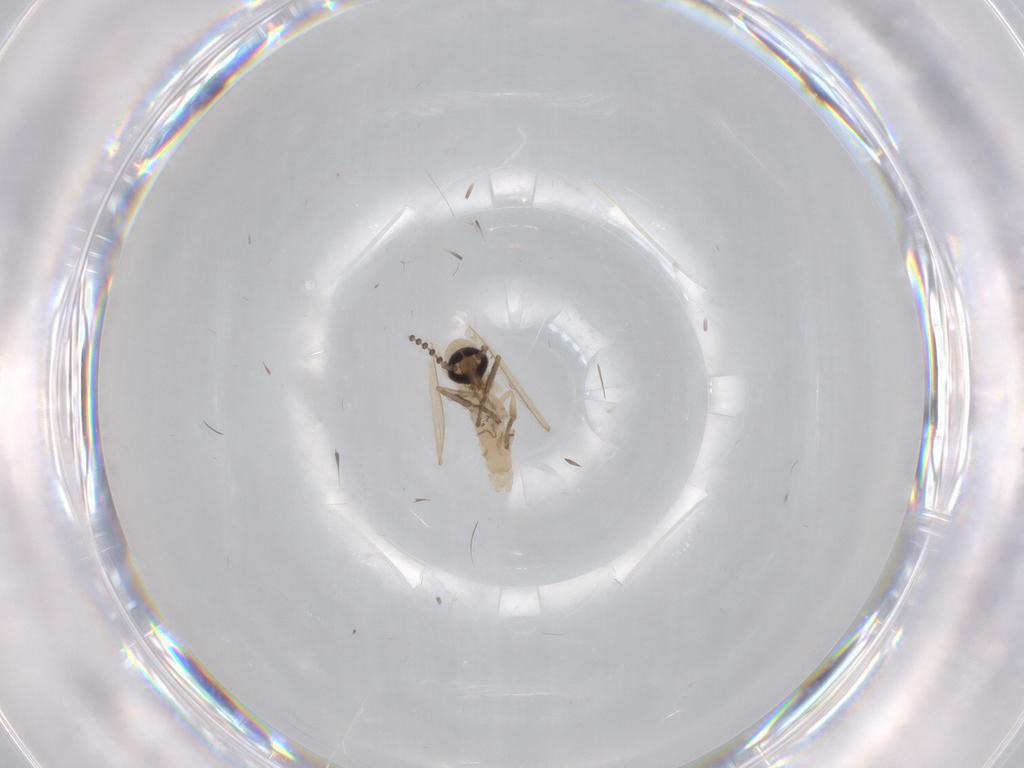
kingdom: Animalia
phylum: Arthropoda
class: Insecta
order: Diptera
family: Psychodidae
